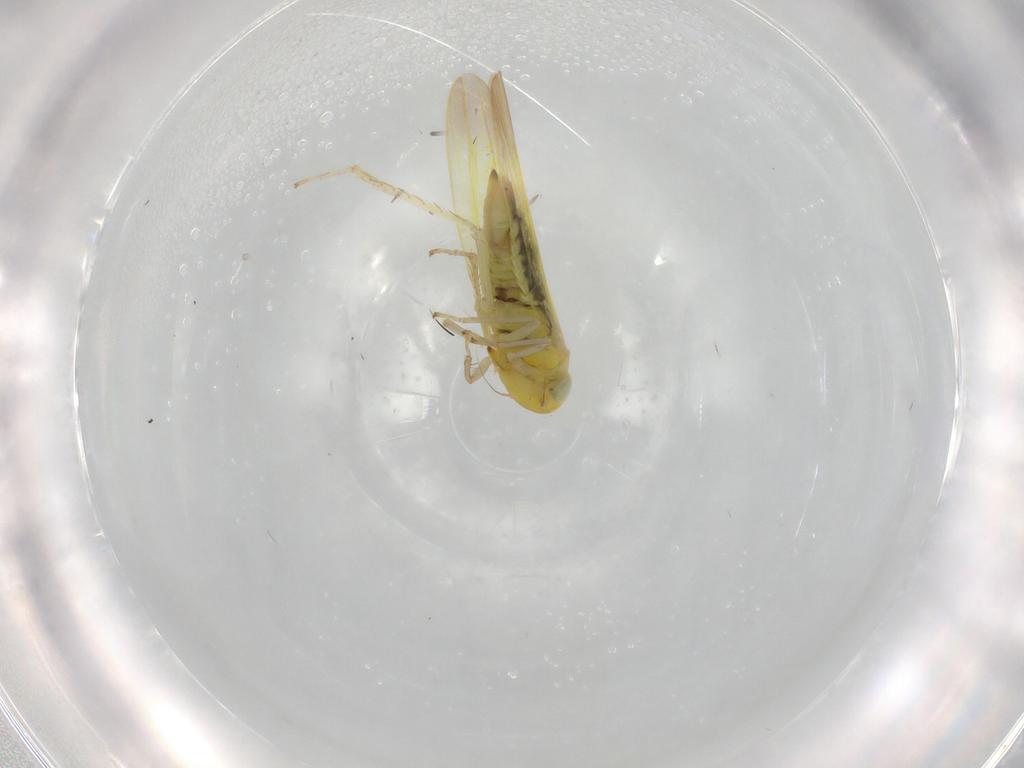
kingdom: Animalia
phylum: Arthropoda
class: Insecta
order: Hemiptera
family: Cicadellidae
